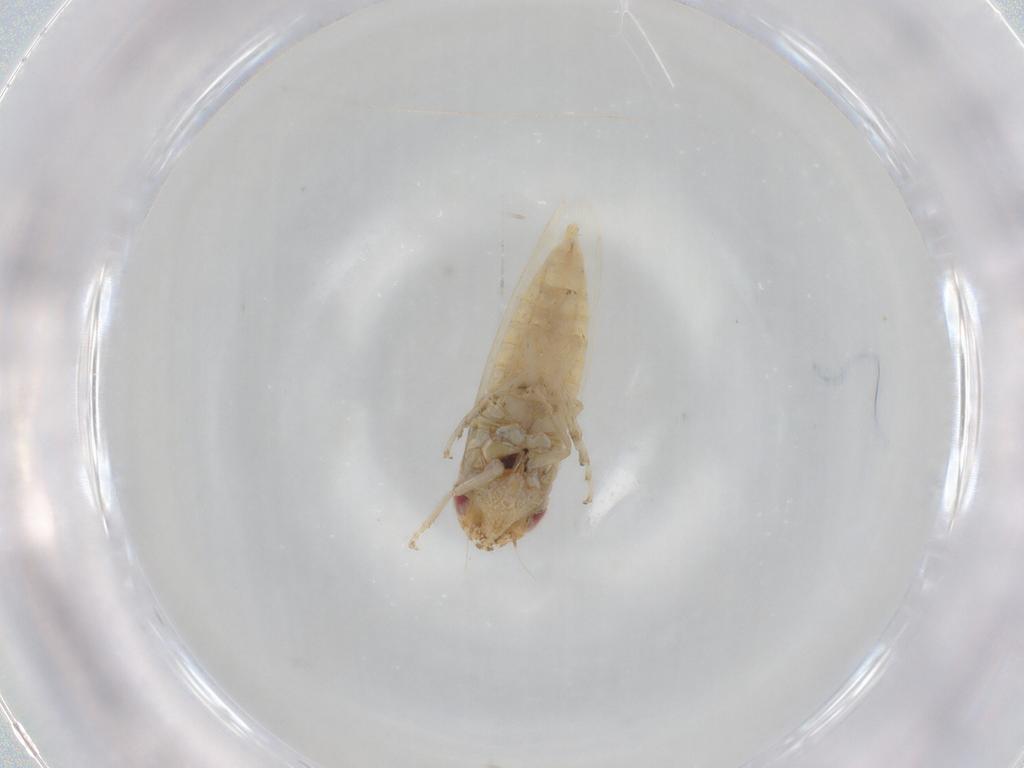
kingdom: Animalia
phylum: Arthropoda
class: Insecta
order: Hemiptera
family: Cicadellidae
